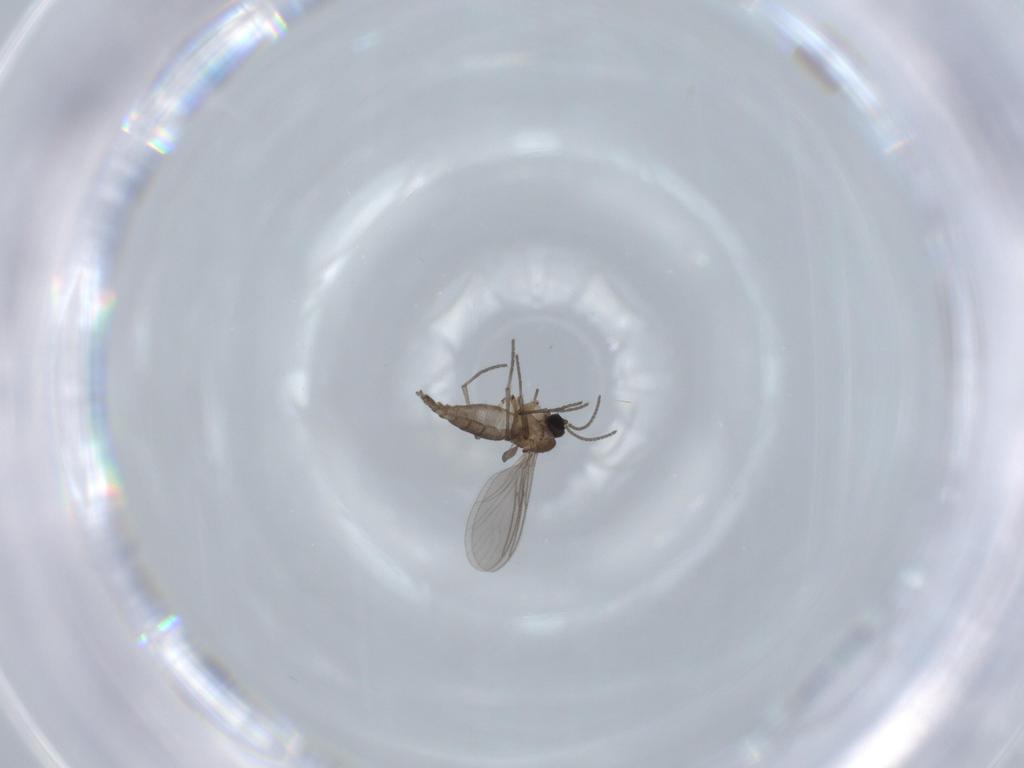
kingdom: Animalia
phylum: Arthropoda
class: Insecta
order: Diptera
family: Sciaridae
